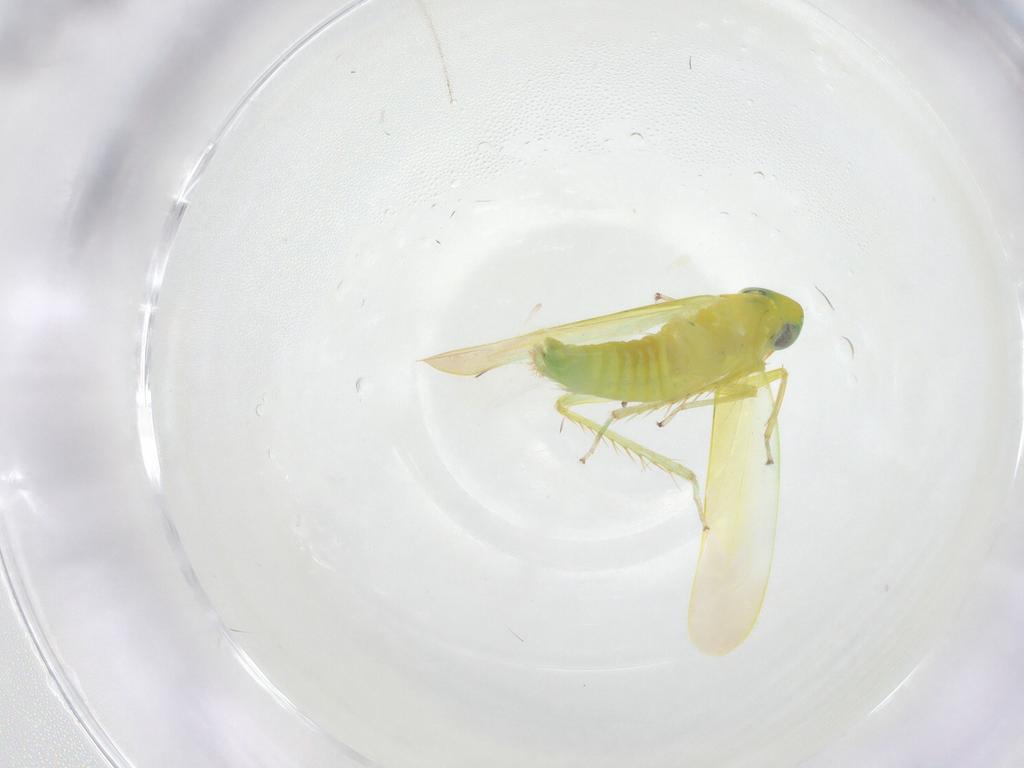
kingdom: Animalia
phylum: Arthropoda
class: Insecta
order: Hemiptera
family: Cicadellidae
